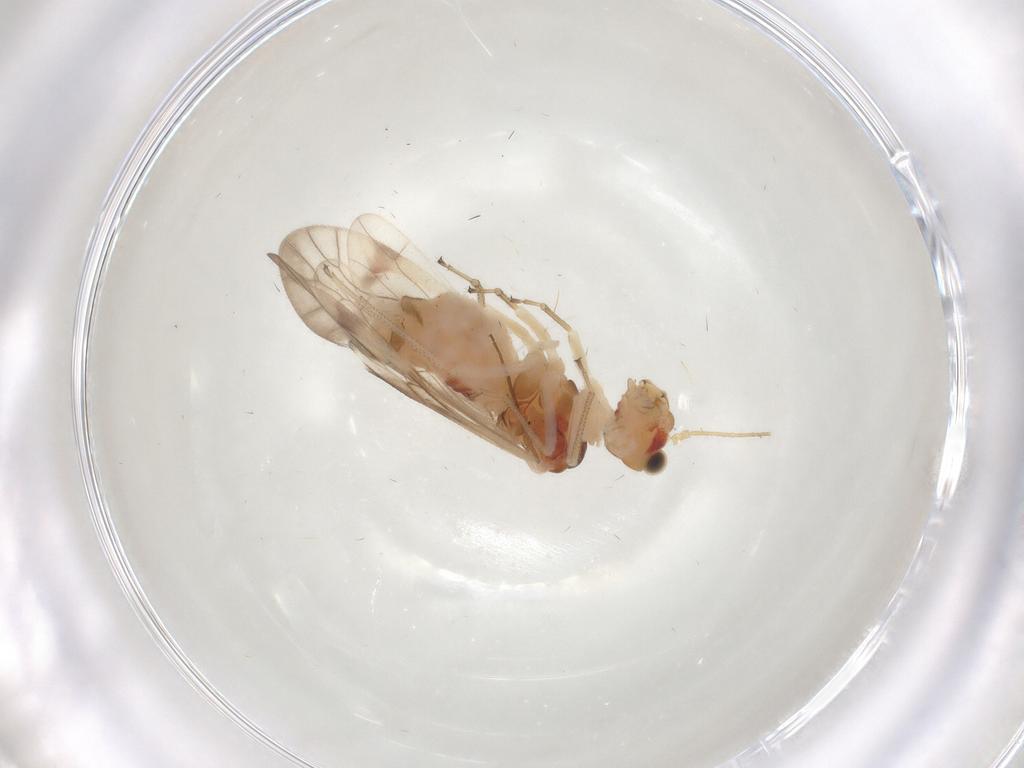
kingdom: Animalia
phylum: Arthropoda
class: Insecta
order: Psocodea
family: Caeciliusidae
